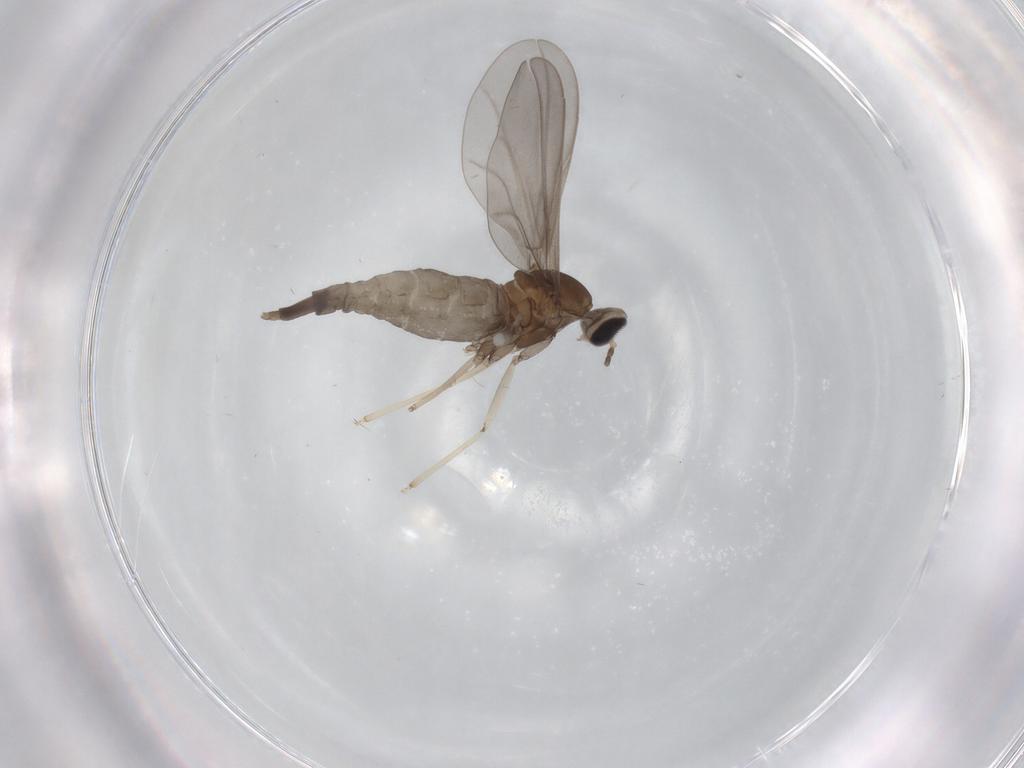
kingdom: Animalia
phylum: Arthropoda
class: Insecta
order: Diptera
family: Cecidomyiidae
